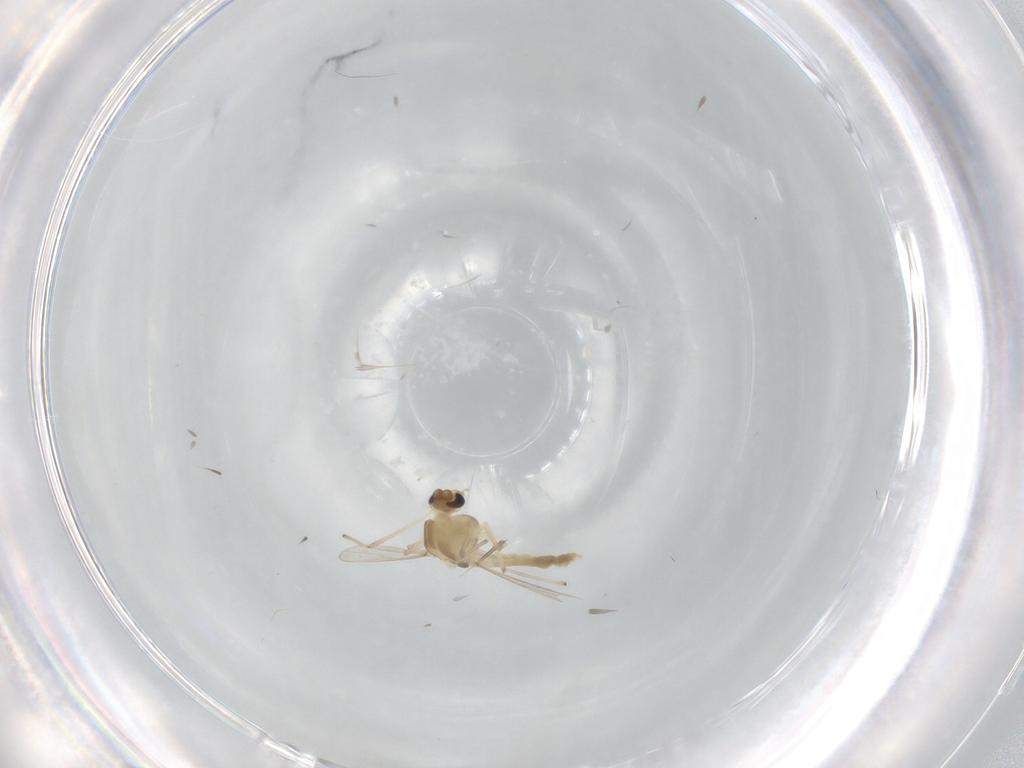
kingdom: Animalia
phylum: Arthropoda
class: Insecta
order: Diptera
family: Chironomidae
